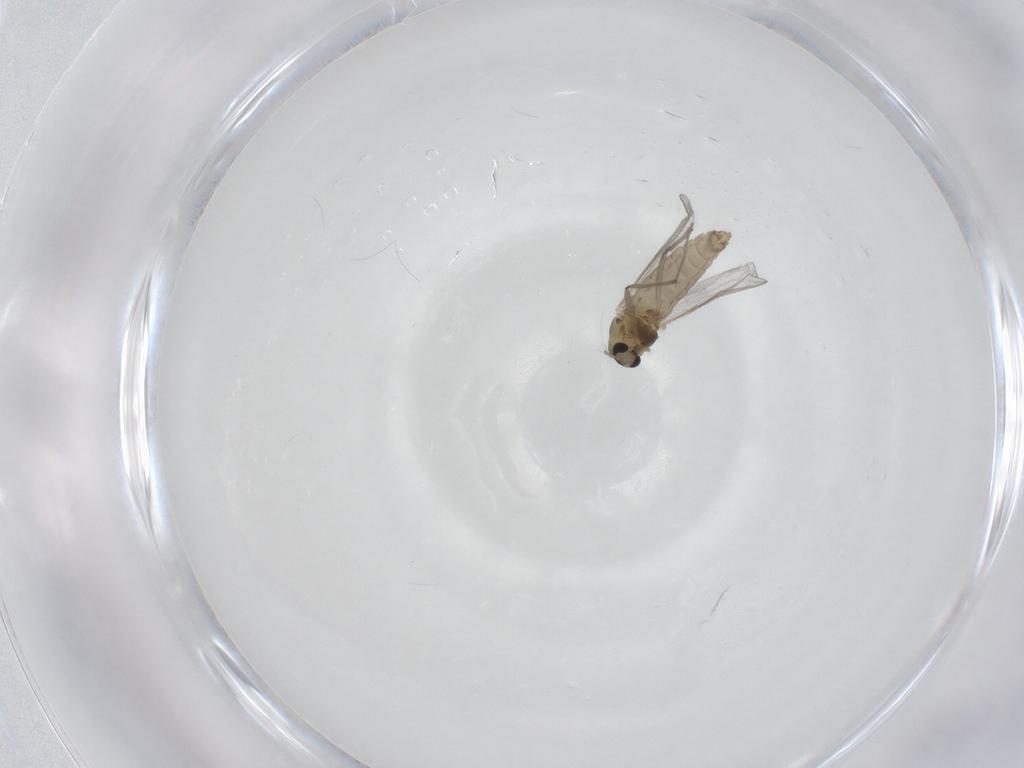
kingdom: Animalia
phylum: Arthropoda
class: Insecta
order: Diptera
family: Chironomidae
